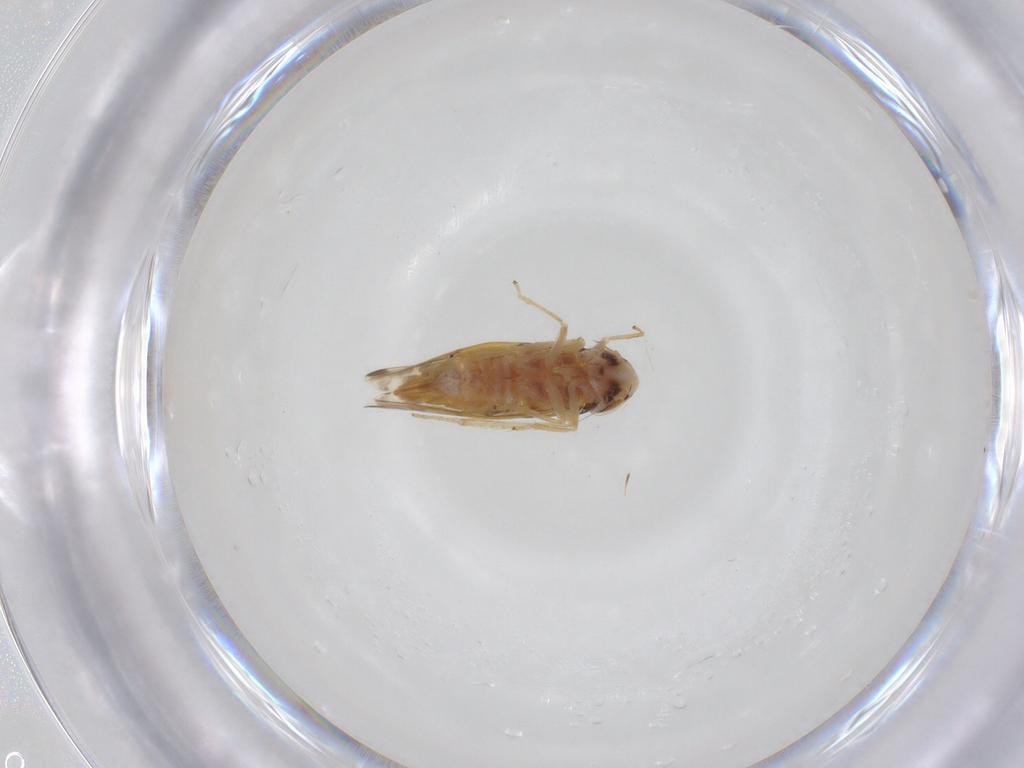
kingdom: Animalia
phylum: Arthropoda
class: Insecta
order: Hemiptera
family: Cicadellidae
